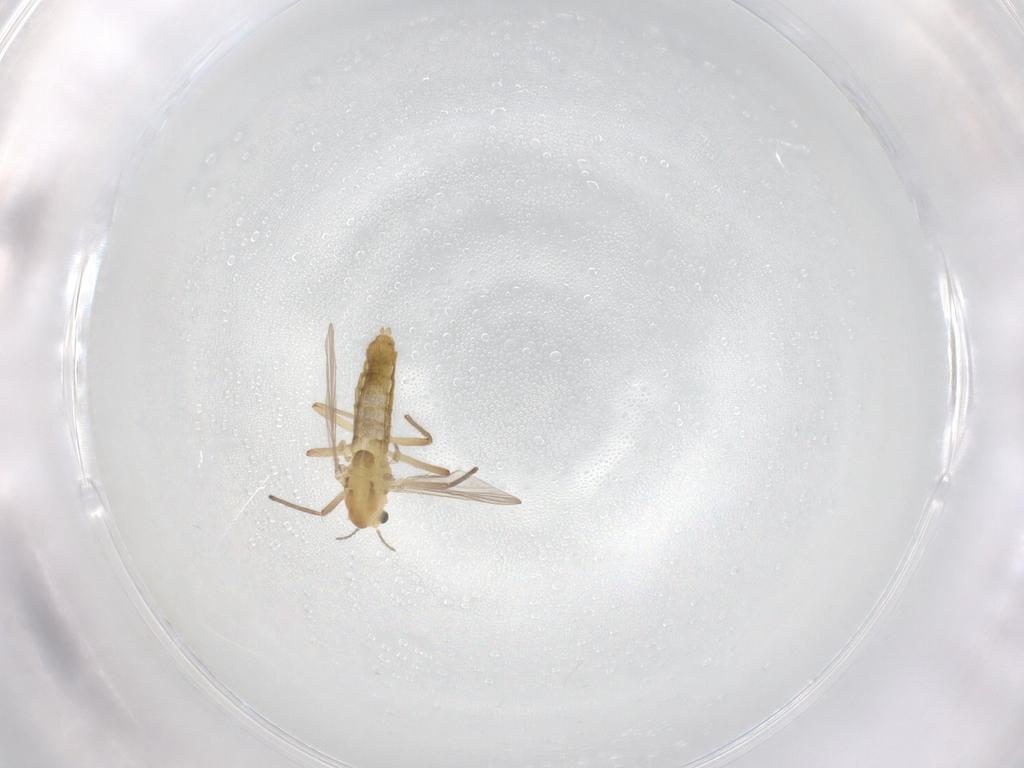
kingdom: Animalia
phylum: Arthropoda
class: Insecta
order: Diptera
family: Chironomidae
